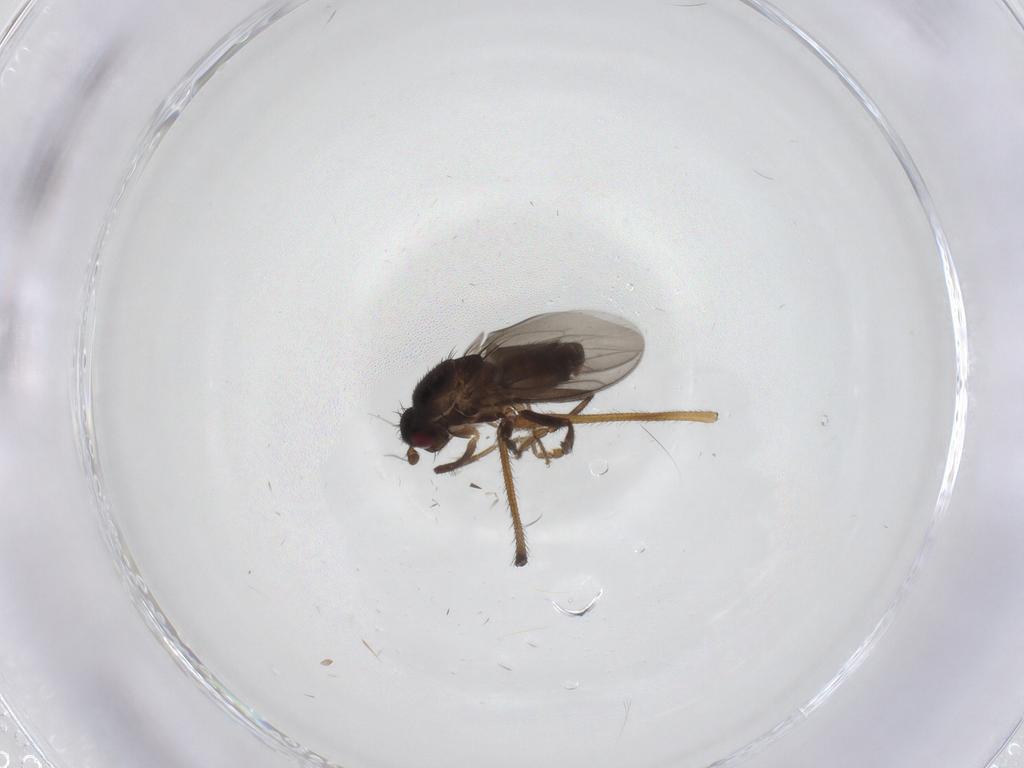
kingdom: Animalia
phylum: Arthropoda
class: Insecta
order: Diptera
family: Sphaeroceridae
